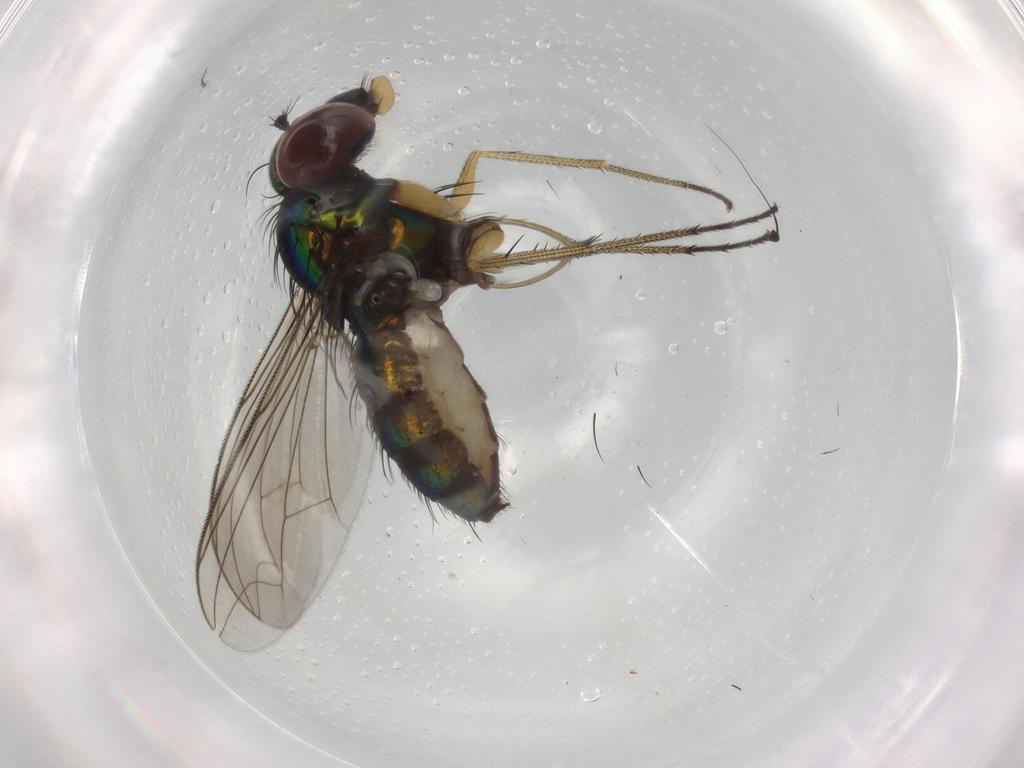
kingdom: Animalia
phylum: Arthropoda
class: Insecta
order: Diptera
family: Dolichopodidae
